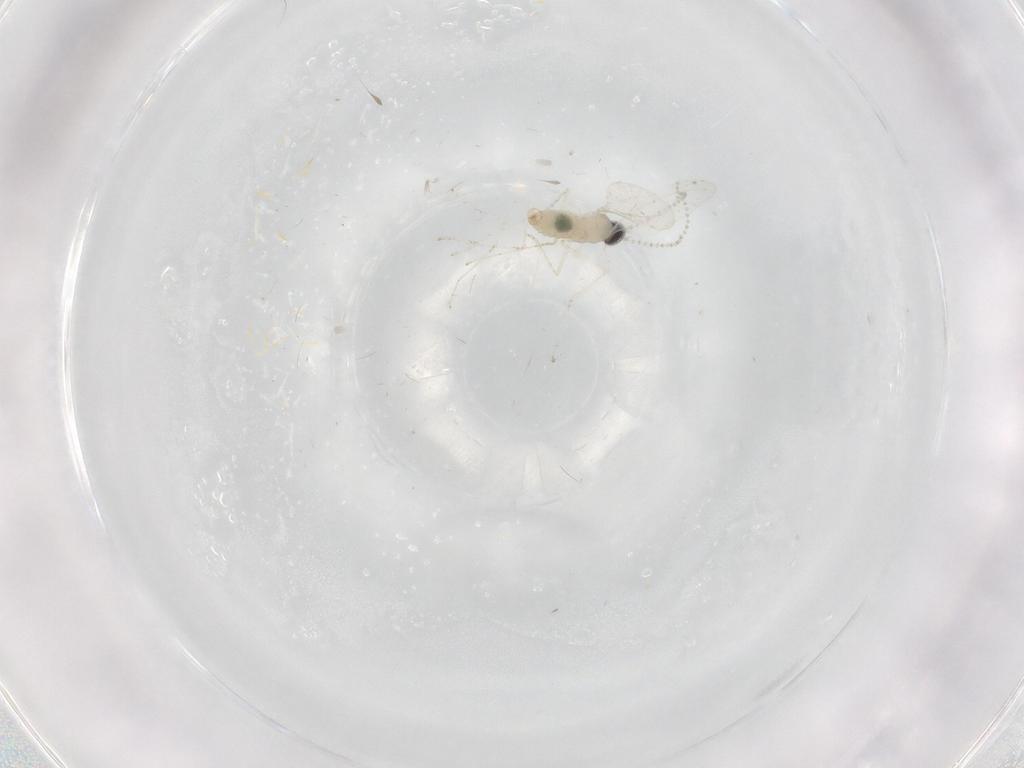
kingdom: Animalia
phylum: Arthropoda
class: Insecta
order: Diptera
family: Cecidomyiidae
